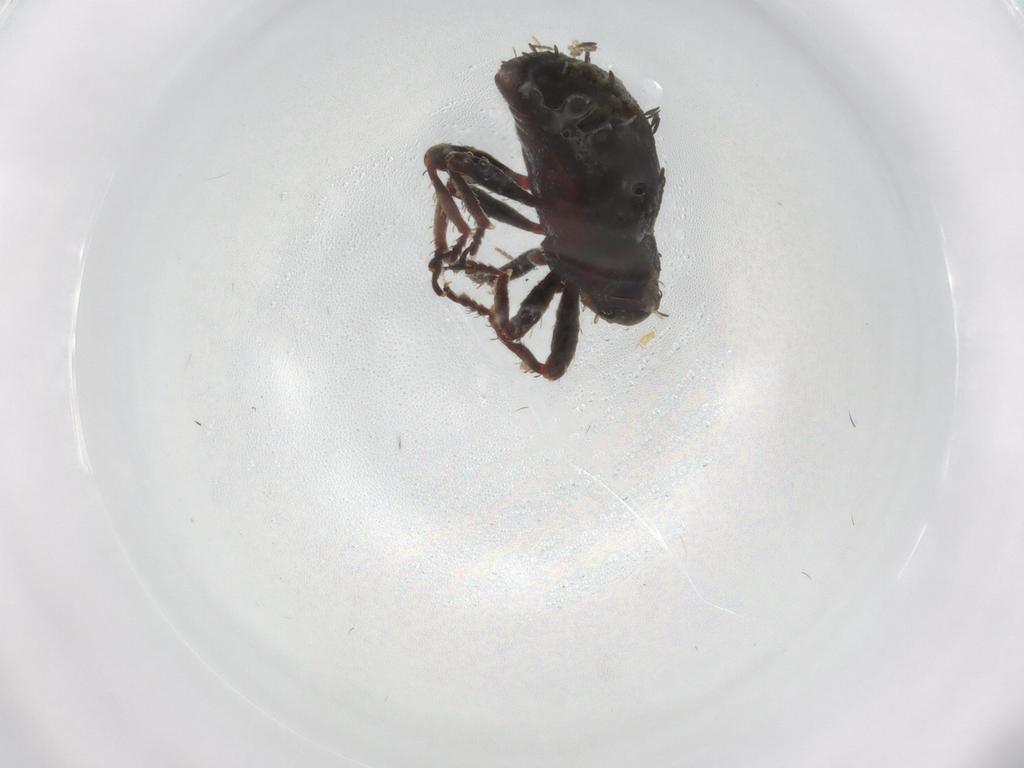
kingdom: Animalia
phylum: Arthropoda
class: Insecta
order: Coleoptera
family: Curculionidae
